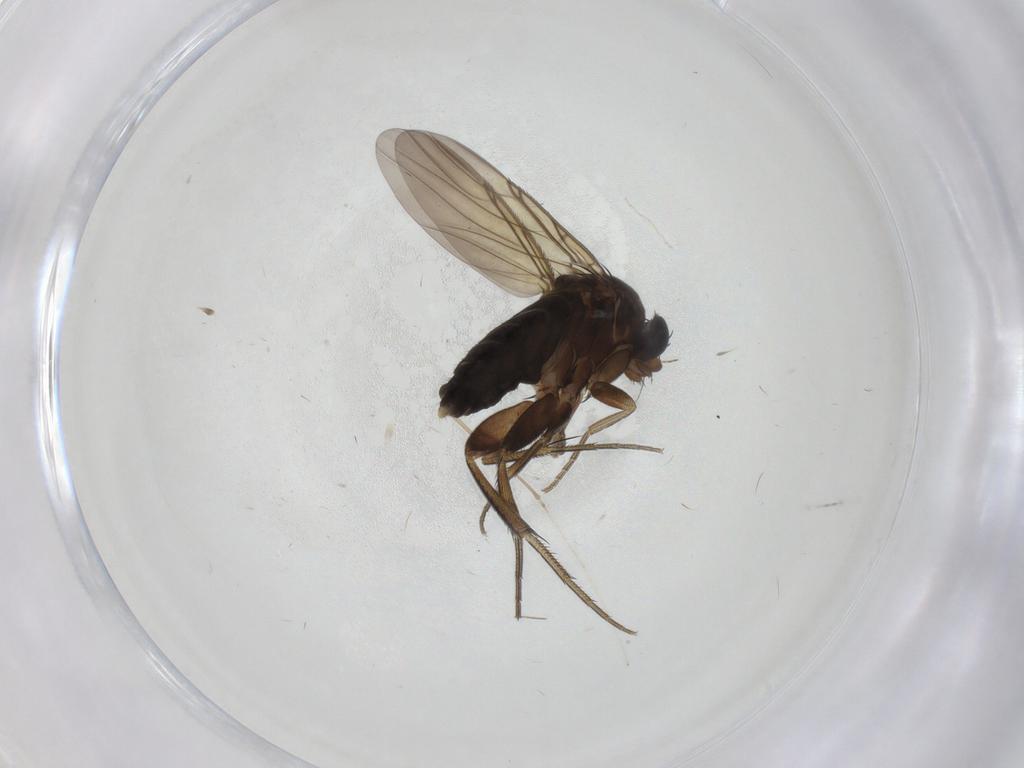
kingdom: Animalia
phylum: Arthropoda
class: Insecta
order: Diptera
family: Phoridae
